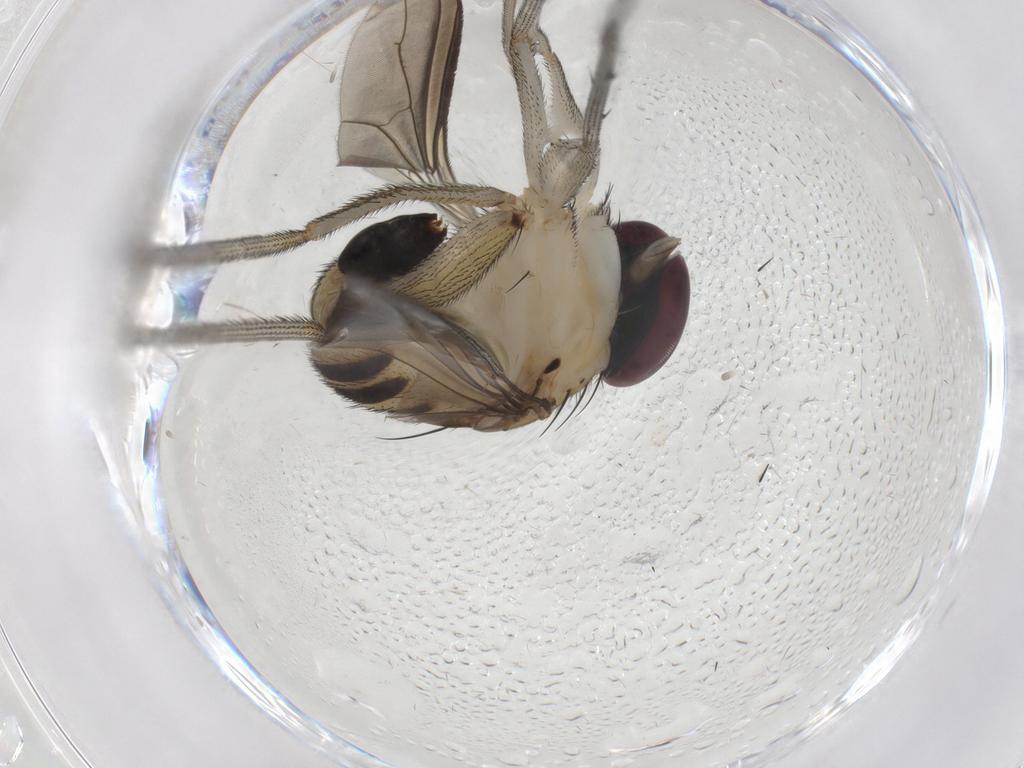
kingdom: Animalia
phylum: Arthropoda
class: Insecta
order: Diptera
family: Dolichopodidae
